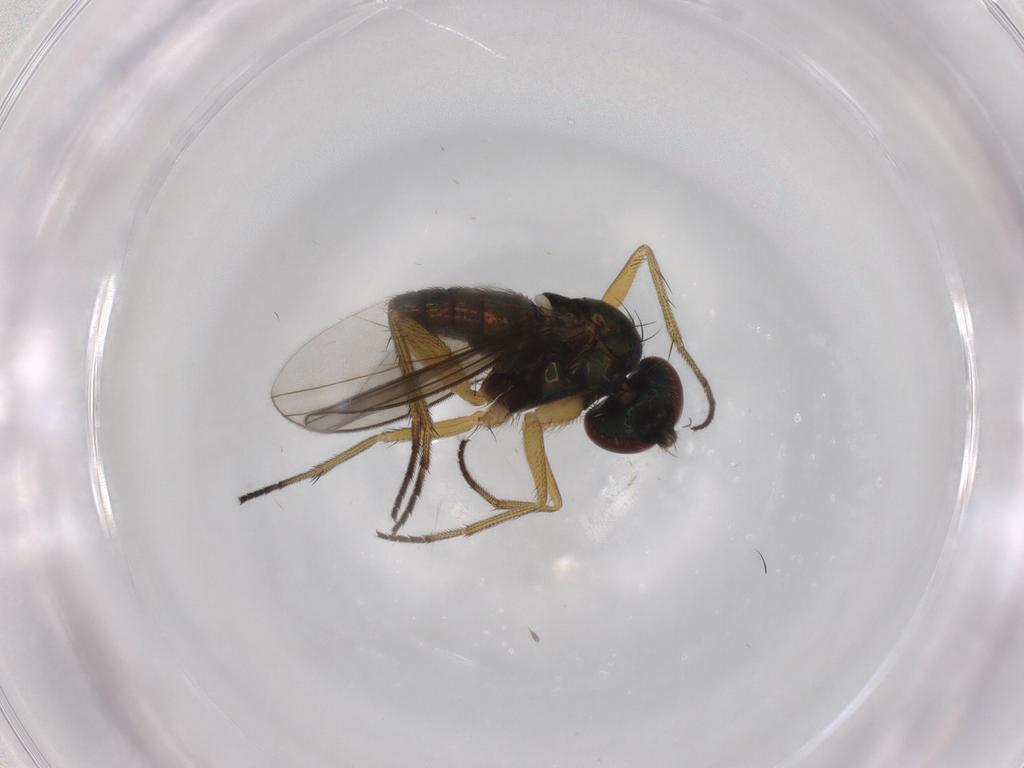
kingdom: Animalia
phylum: Arthropoda
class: Insecta
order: Diptera
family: Dolichopodidae
